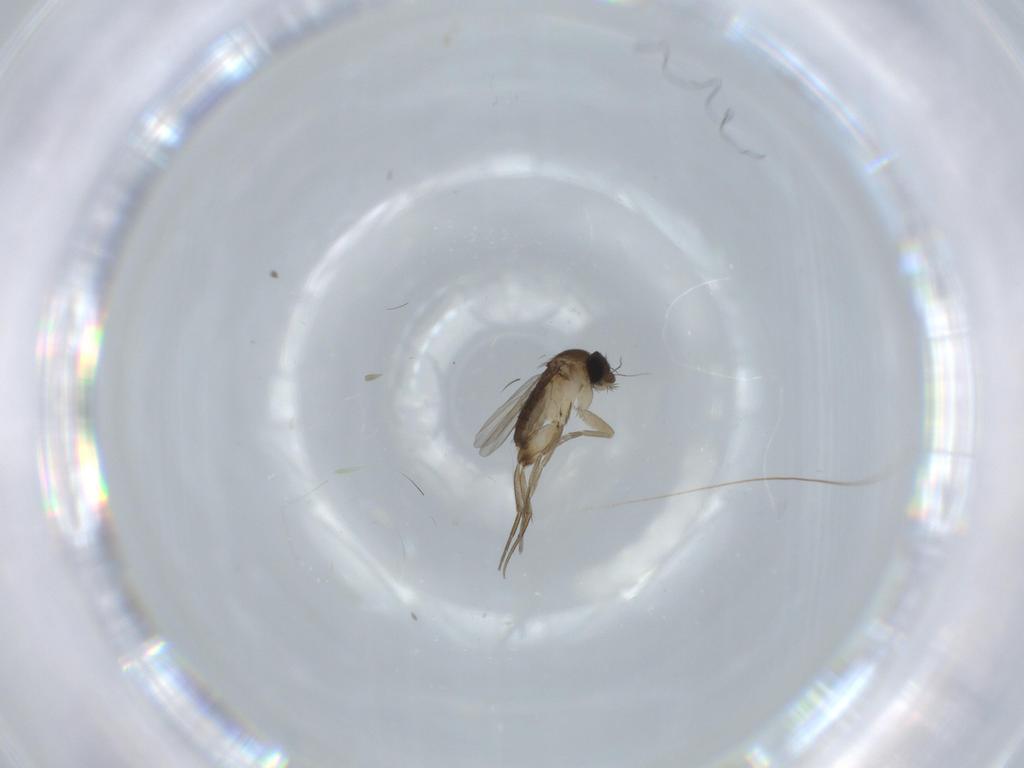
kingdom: Animalia
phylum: Arthropoda
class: Insecta
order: Diptera
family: Phoridae
